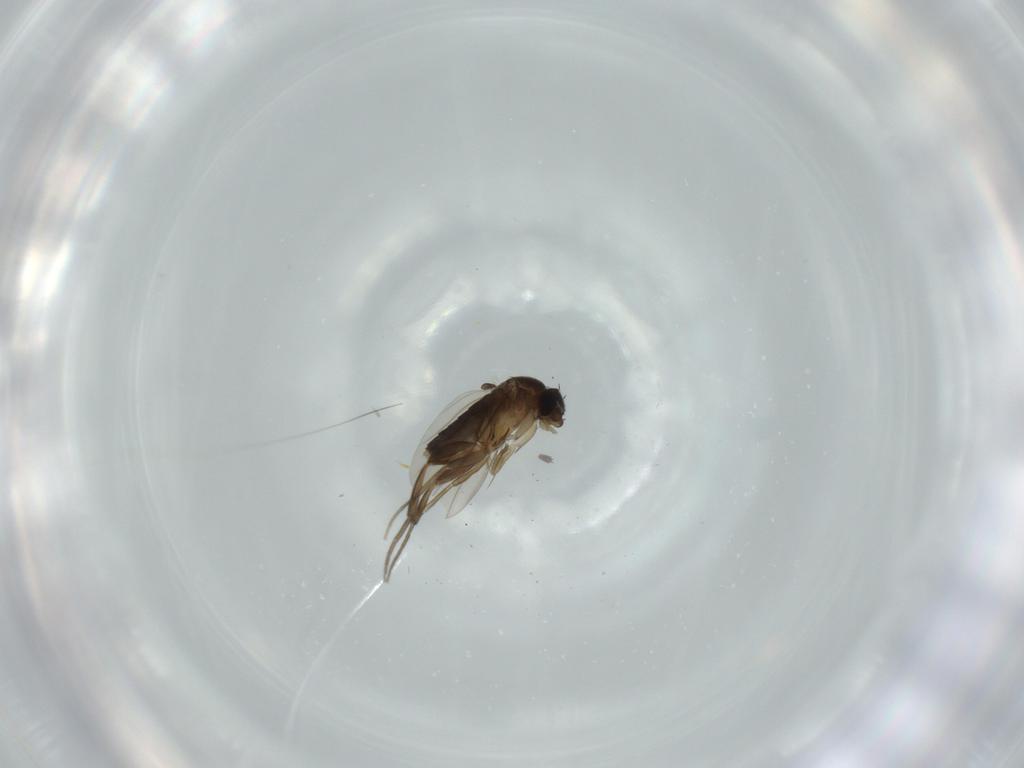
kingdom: Animalia
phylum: Arthropoda
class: Insecta
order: Diptera
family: Phoridae
